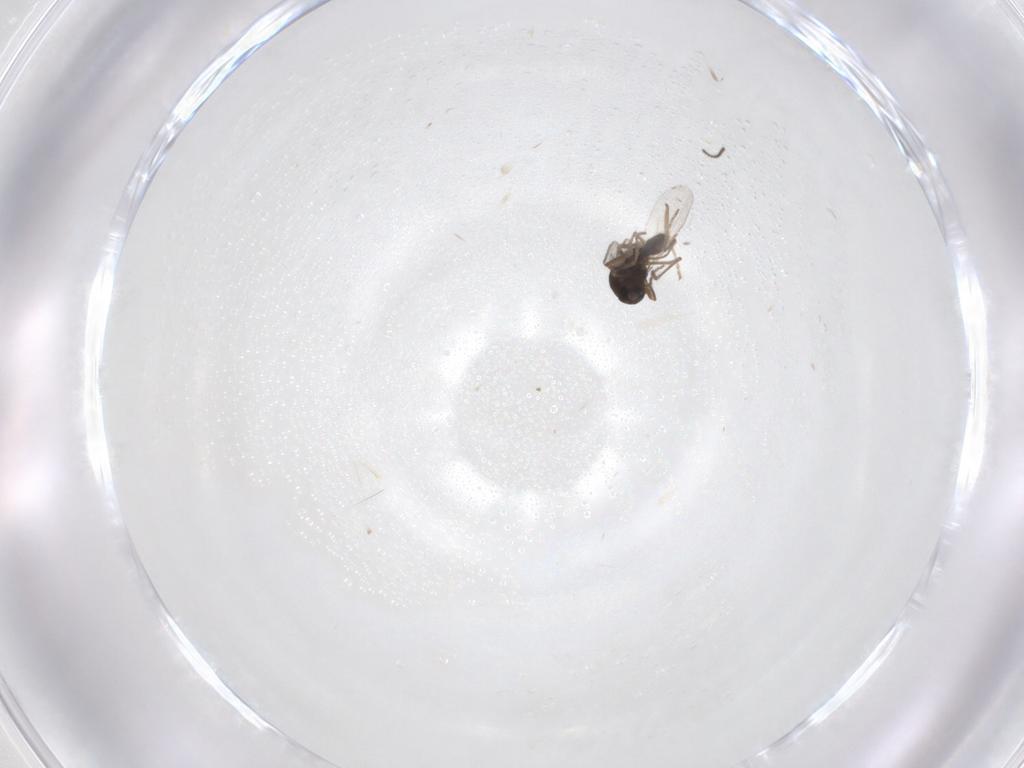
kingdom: Animalia
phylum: Arthropoda
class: Insecta
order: Diptera
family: Ceratopogonidae
